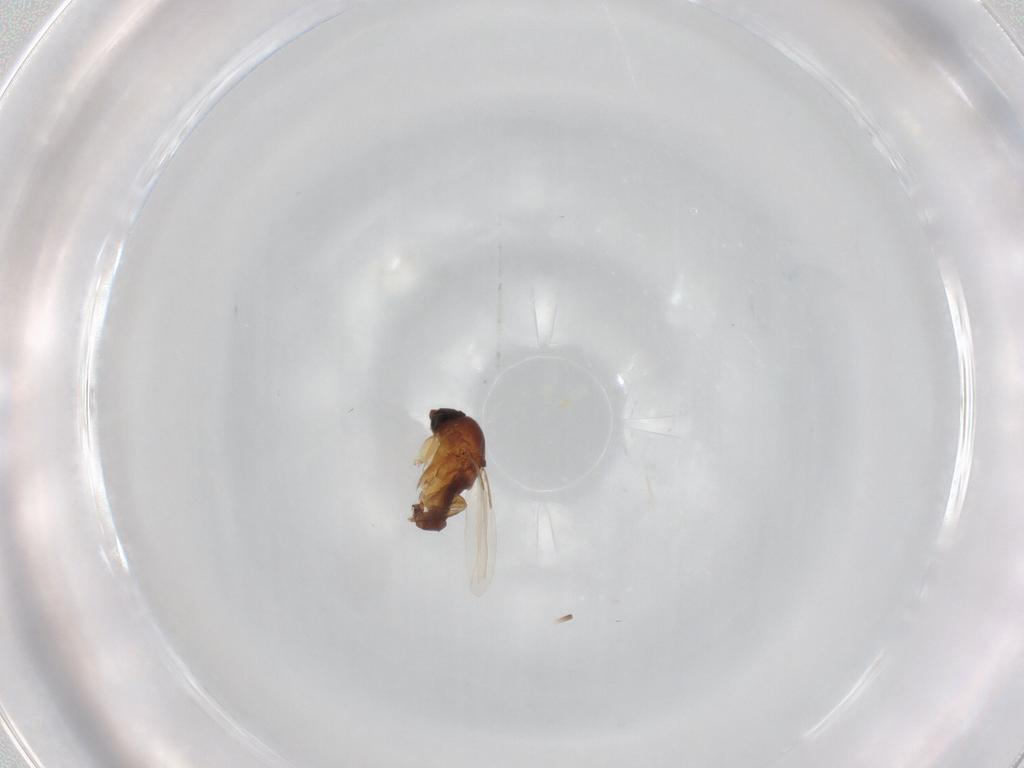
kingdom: Animalia
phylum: Arthropoda
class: Insecta
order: Diptera
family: Phoridae
